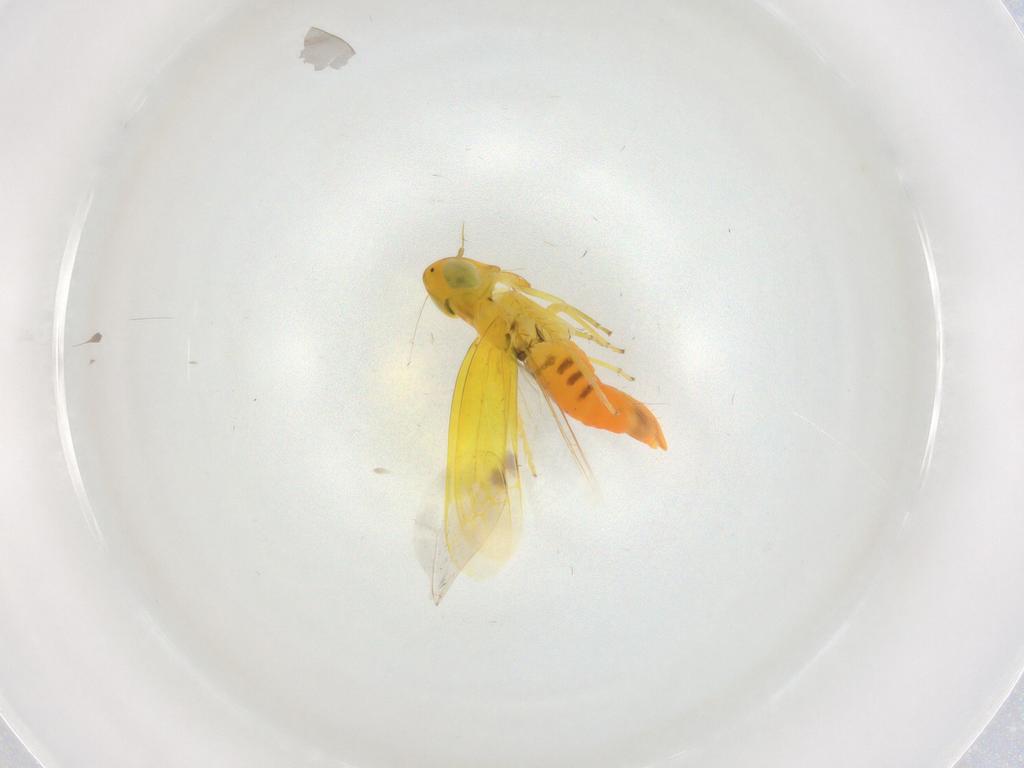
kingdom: Animalia
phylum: Arthropoda
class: Insecta
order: Hemiptera
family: Cicadellidae
